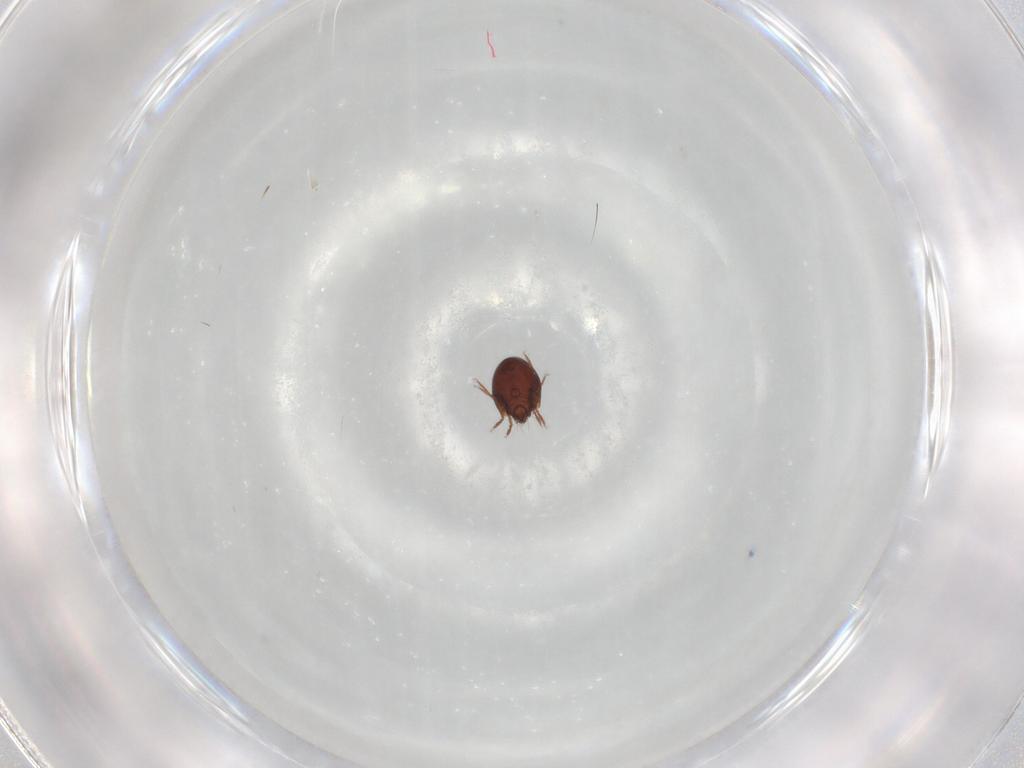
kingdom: Animalia
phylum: Arthropoda
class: Arachnida
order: Sarcoptiformes
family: Humerobatidae
